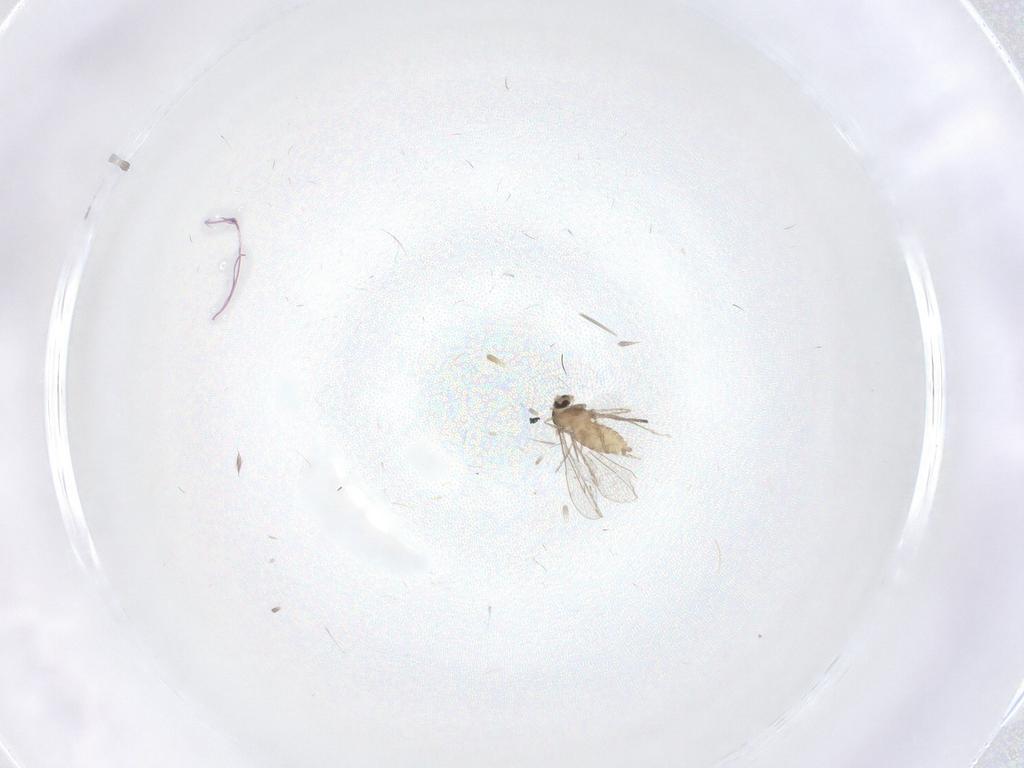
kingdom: Animalia
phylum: Arthropoda
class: Insecta
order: Diptera
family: Cecidomyiidae
